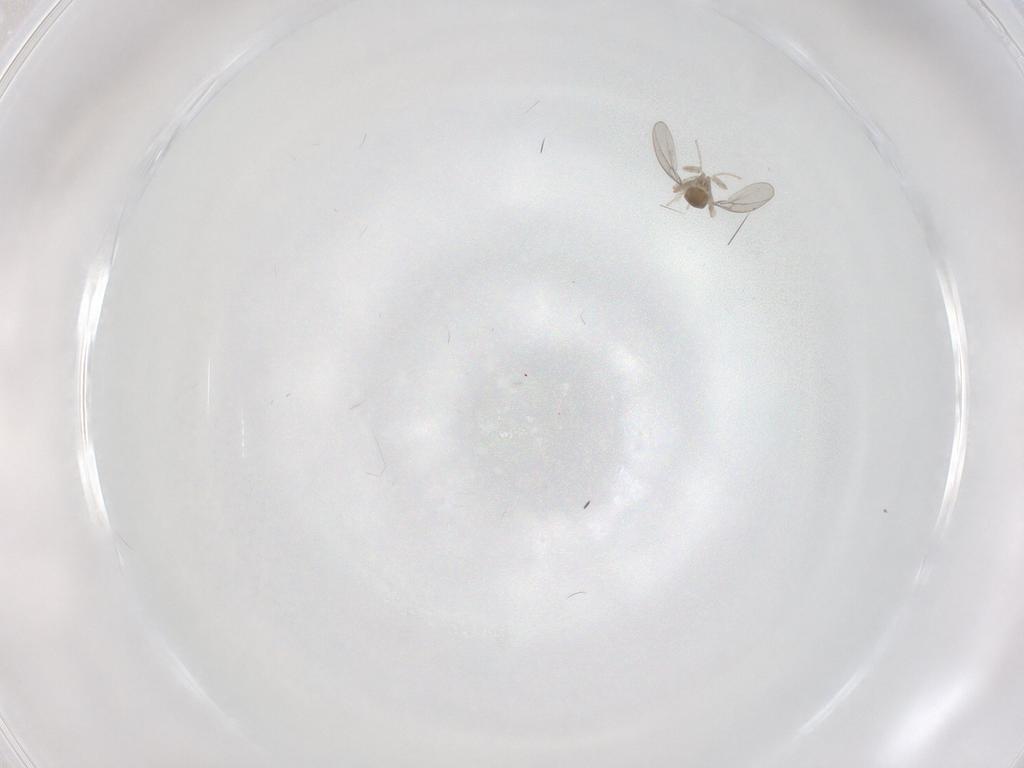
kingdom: Animalia
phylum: Arthropoda
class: Insecta
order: Diptera
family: Cecidomyiidae
